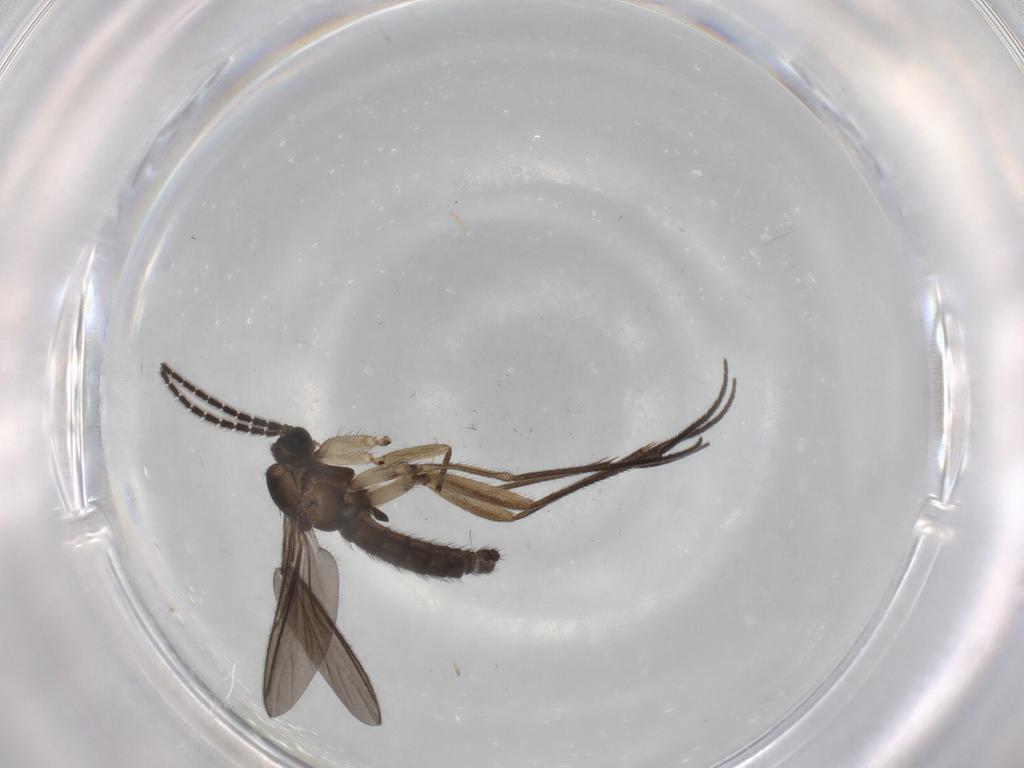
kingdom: Animalia
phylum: Arthropoda
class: Insecta
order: Diptera
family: Sciaridae
